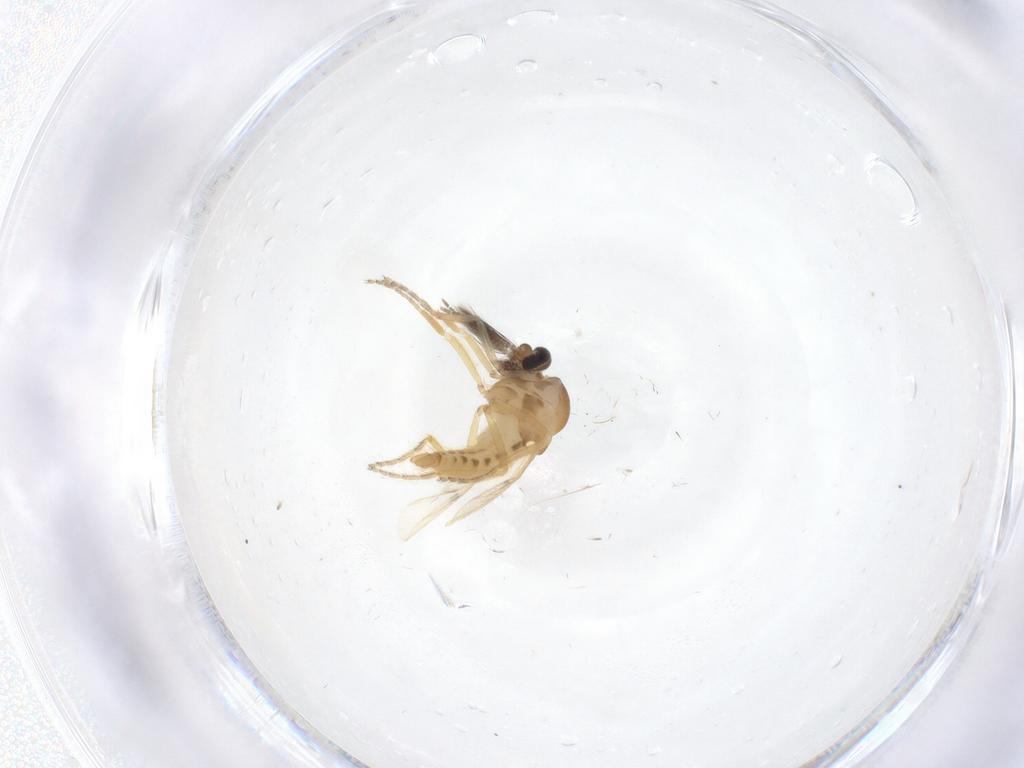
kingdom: Animalia
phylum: Arthropoda
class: Insecta
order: Diptera
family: Ceratopogonidae
